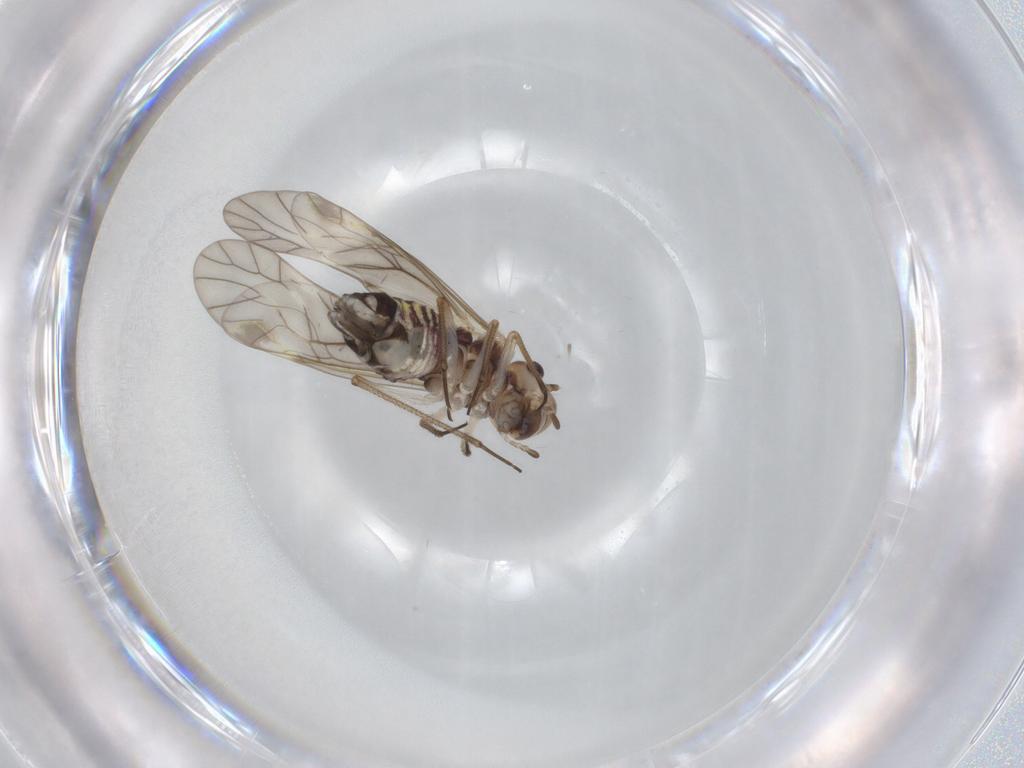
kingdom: Animalia
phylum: Arthropoda
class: Insecta
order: Psocodea
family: Psocidae
